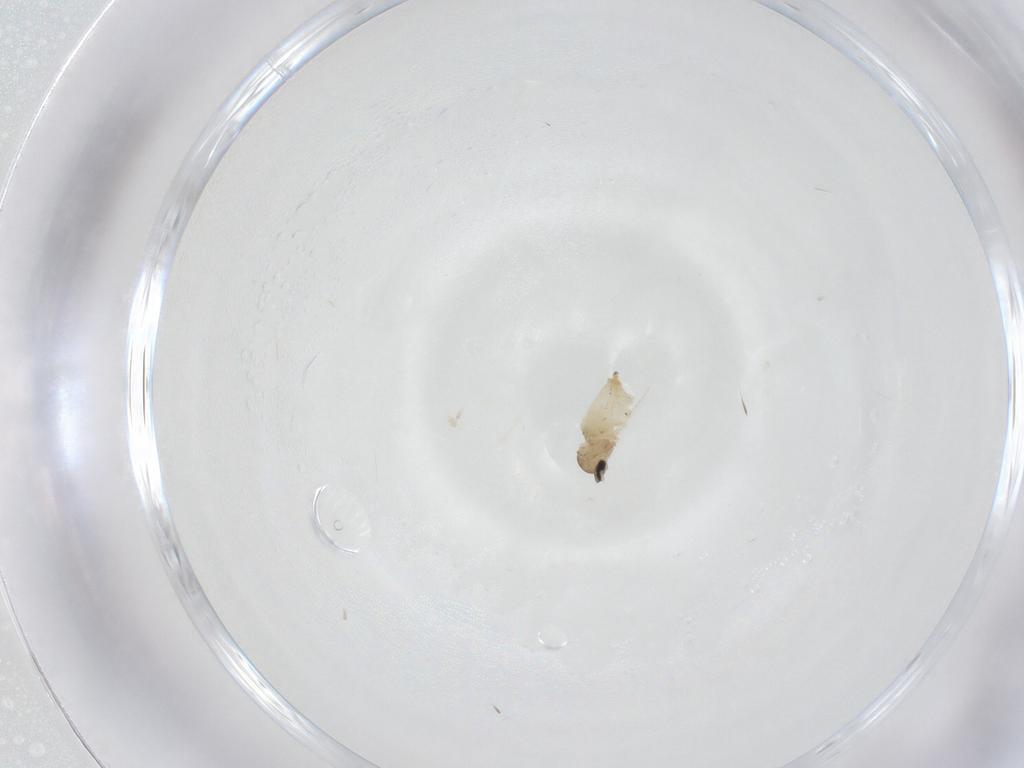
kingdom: Animalia
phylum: Arthropoda
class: Insecta
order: Diptera
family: Cecidomyiidae
